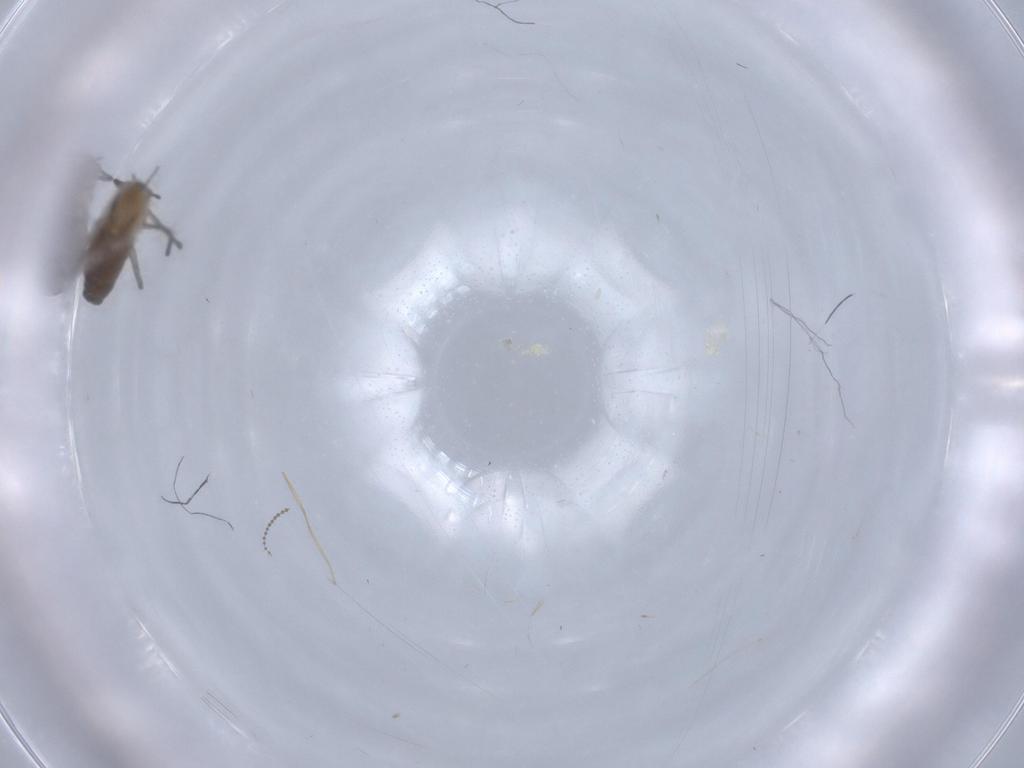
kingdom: Animalia
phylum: Arthropoda
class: Insecta
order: Diptera
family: Chironomidae
